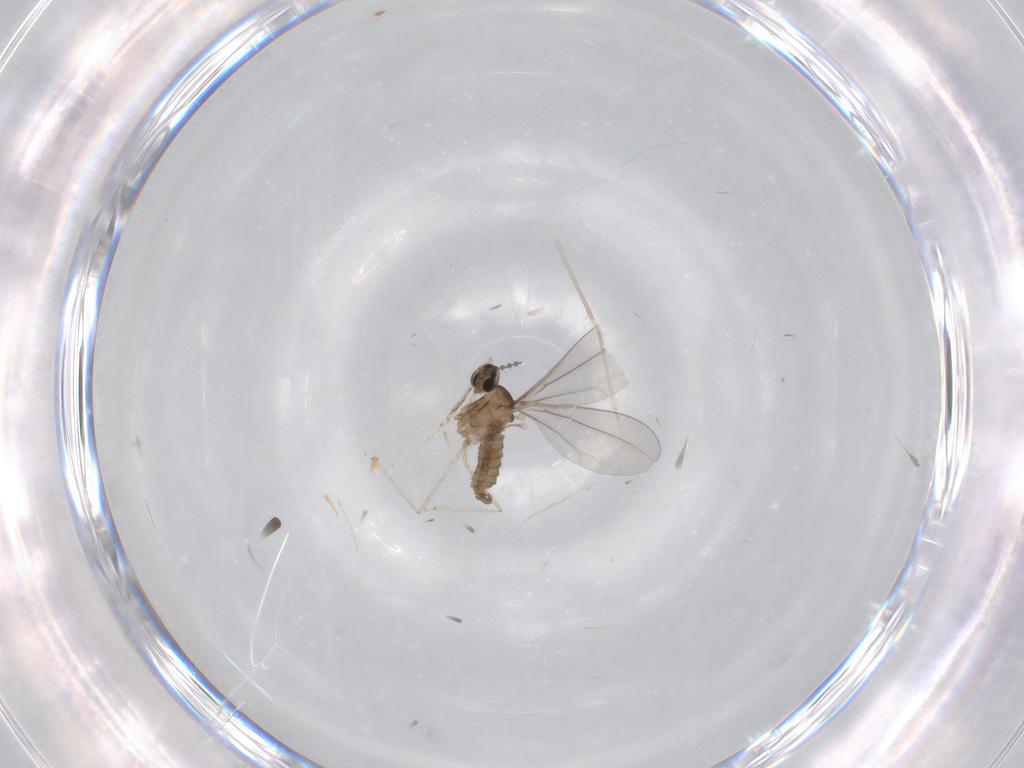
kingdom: Animalia
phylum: Arthropoda
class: Insecta
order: Diptera
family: Cecidomyiidae
